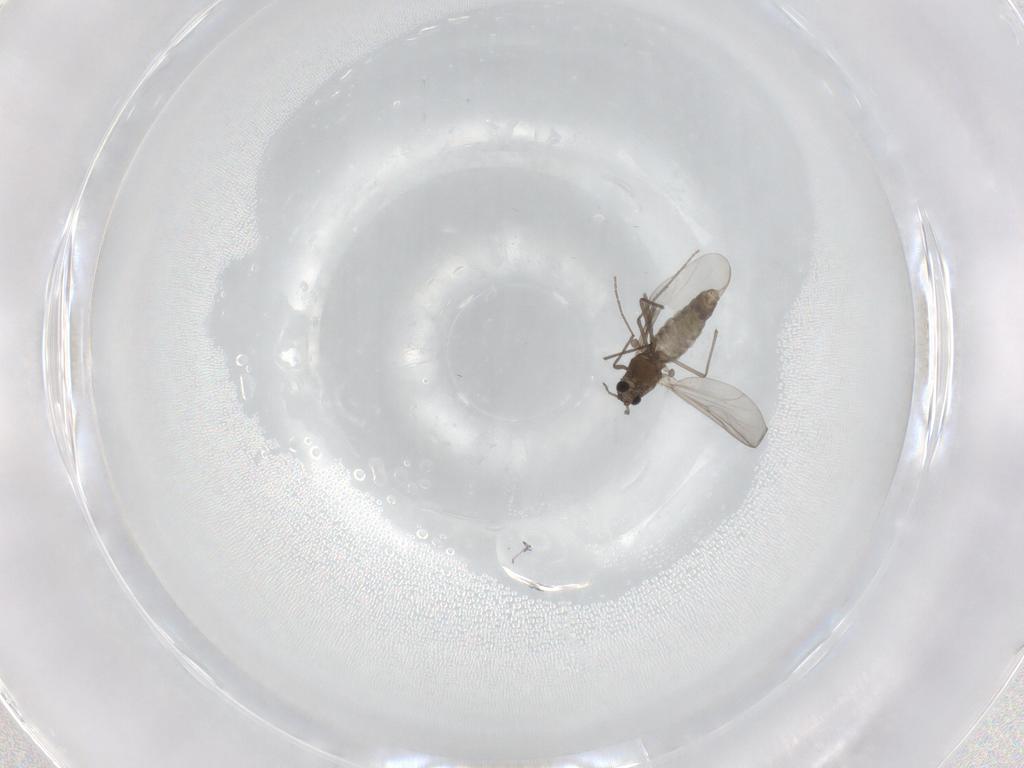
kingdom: Animalia
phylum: Arthropoda
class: Insecta
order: Diptera
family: Chironomidae
